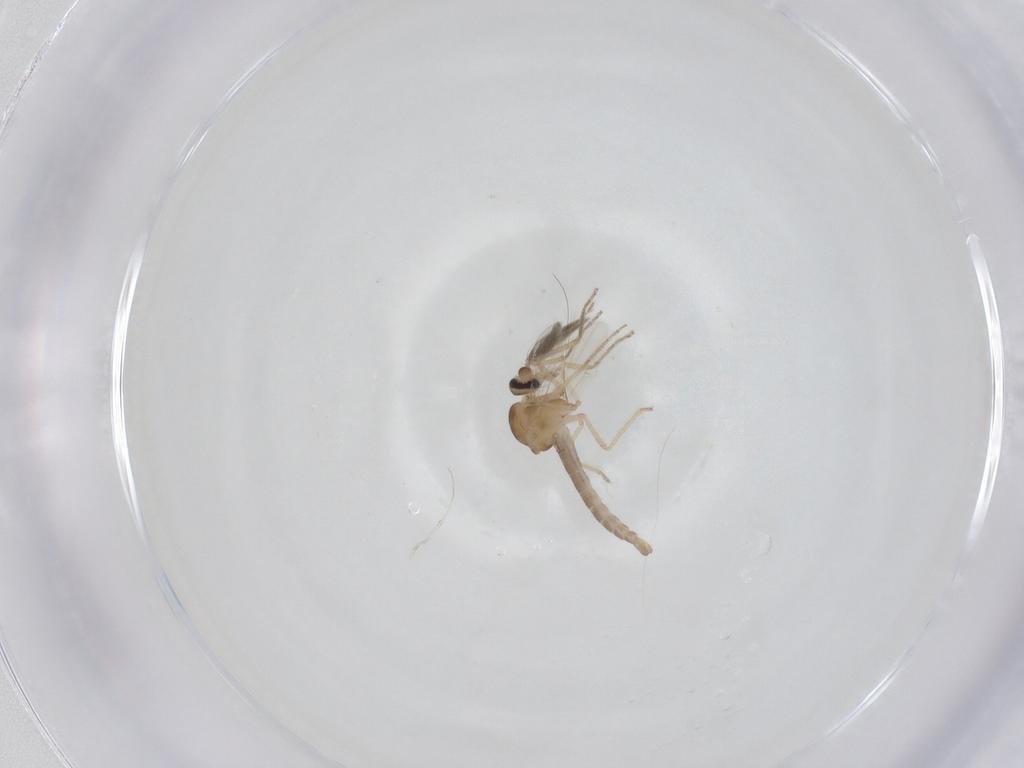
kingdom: Animalia
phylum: Arthropoda
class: Insecta
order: Diptera
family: Ceratopogonidae
